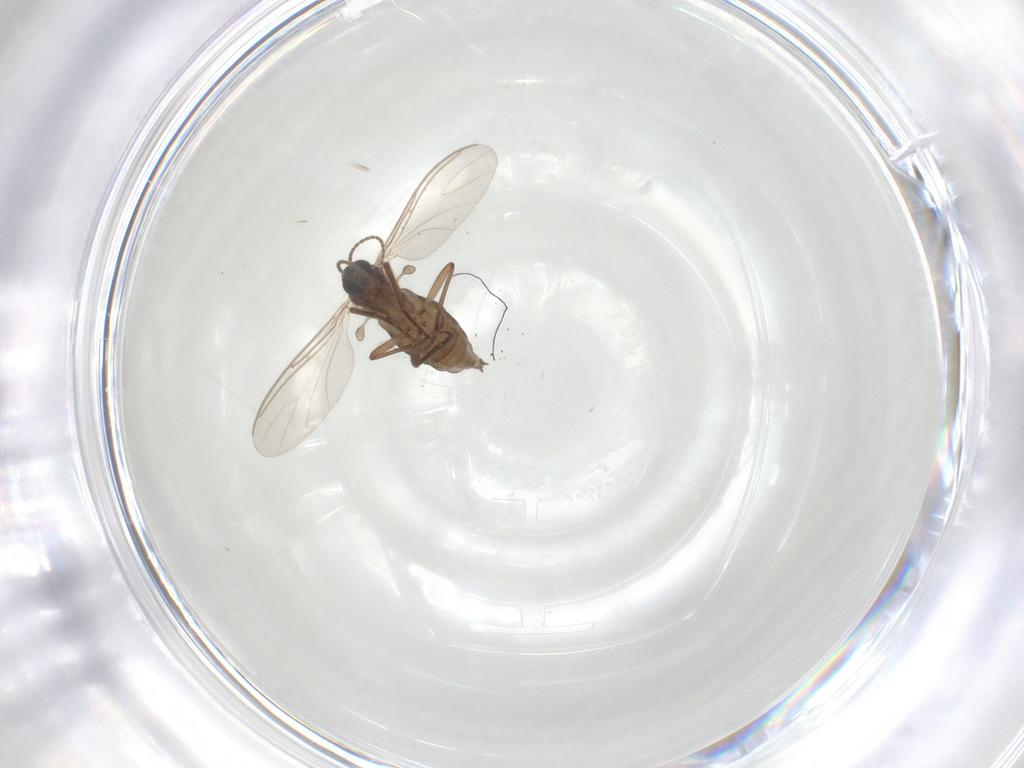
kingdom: Animalia
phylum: Arthropoda
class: Insecta
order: Diptera
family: Sciaridae
